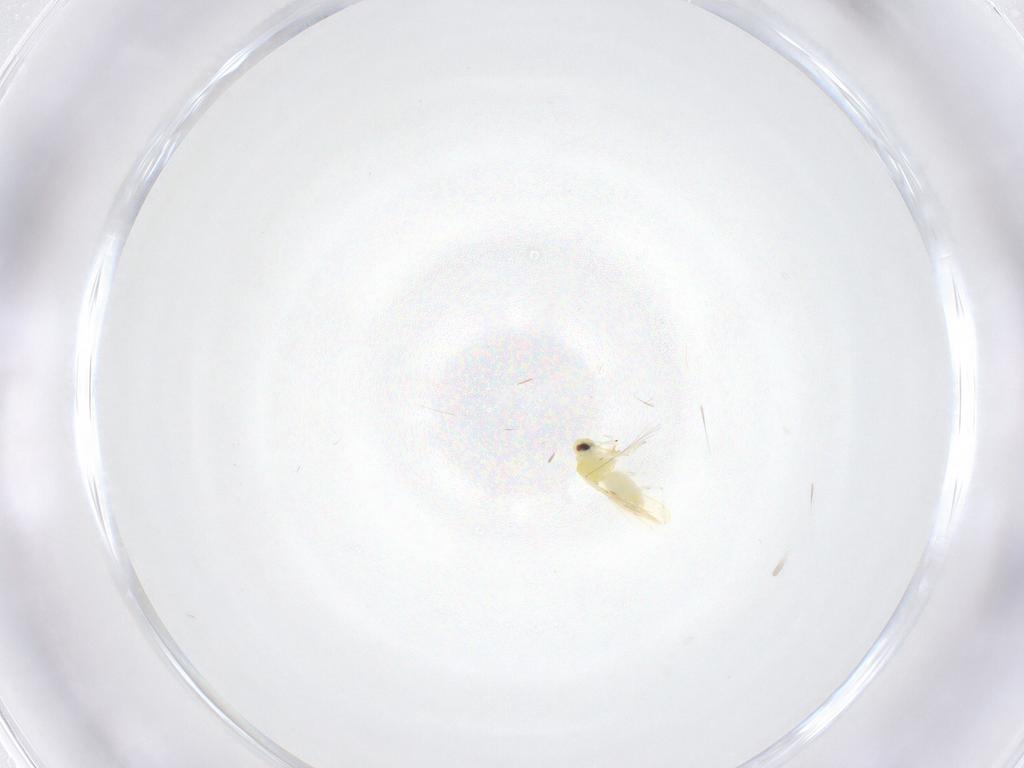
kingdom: Animalia
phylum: Arthropoda
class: Insecta
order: Hemiptera
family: Aleyrodidae
